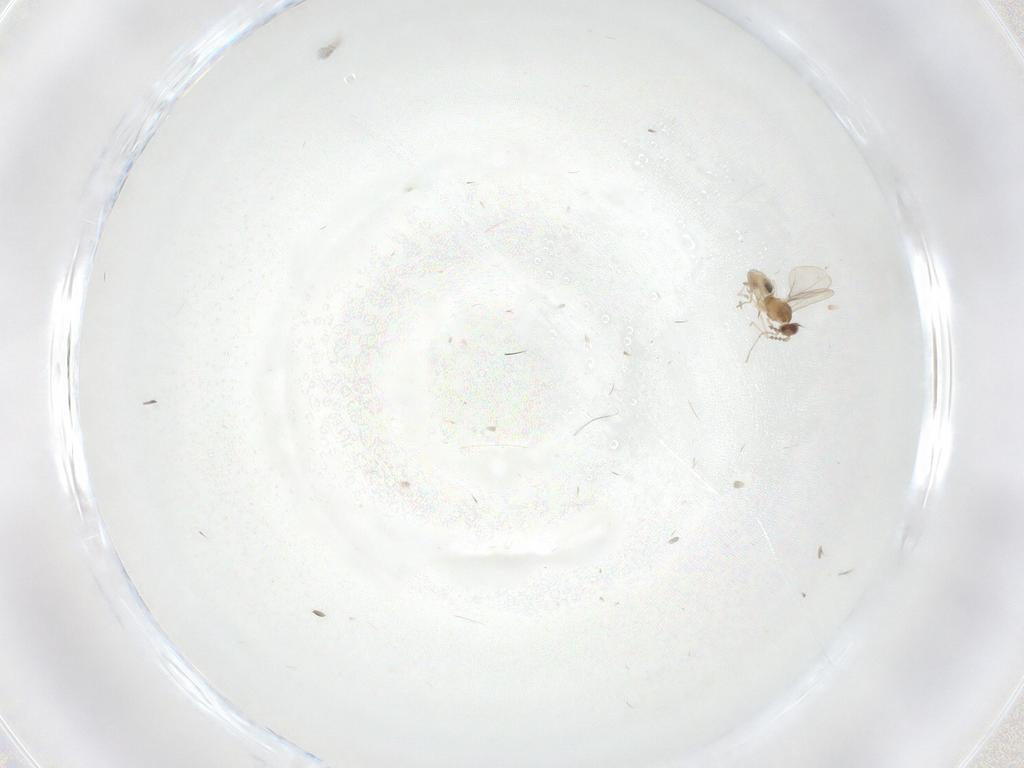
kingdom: Animalia
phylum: Arthropoda
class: Insecta
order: Diptera
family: Cecidomyiidae
